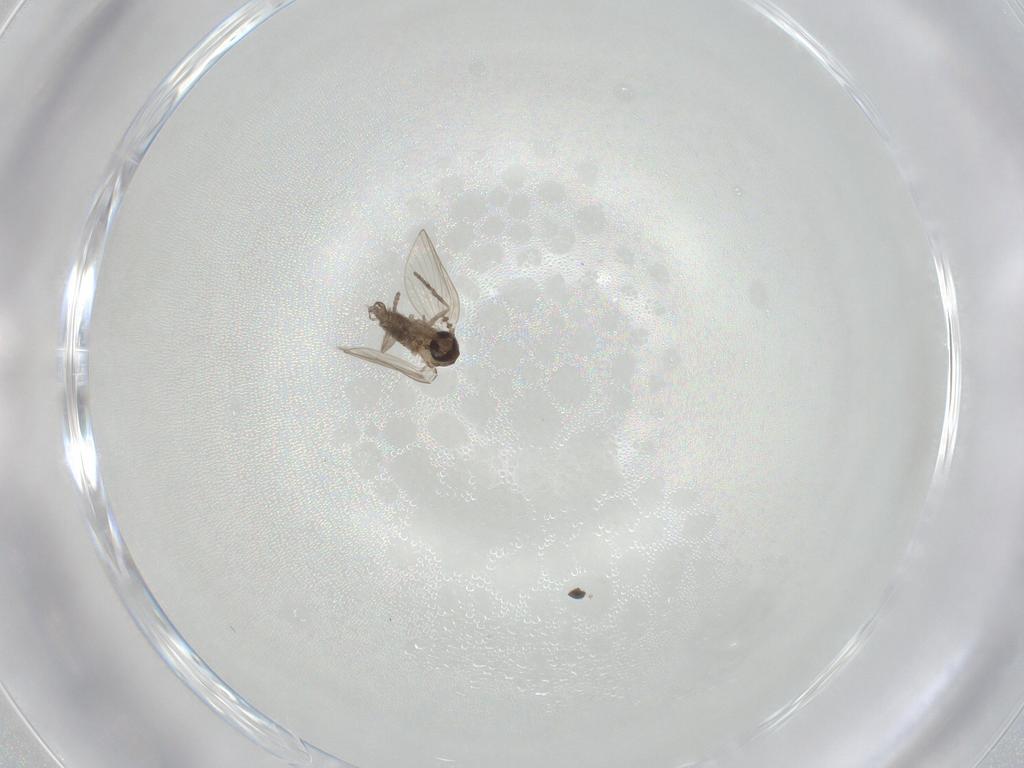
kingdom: Animalia
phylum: Arthropoda
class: Insecta
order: Diptera
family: Psychodidae
